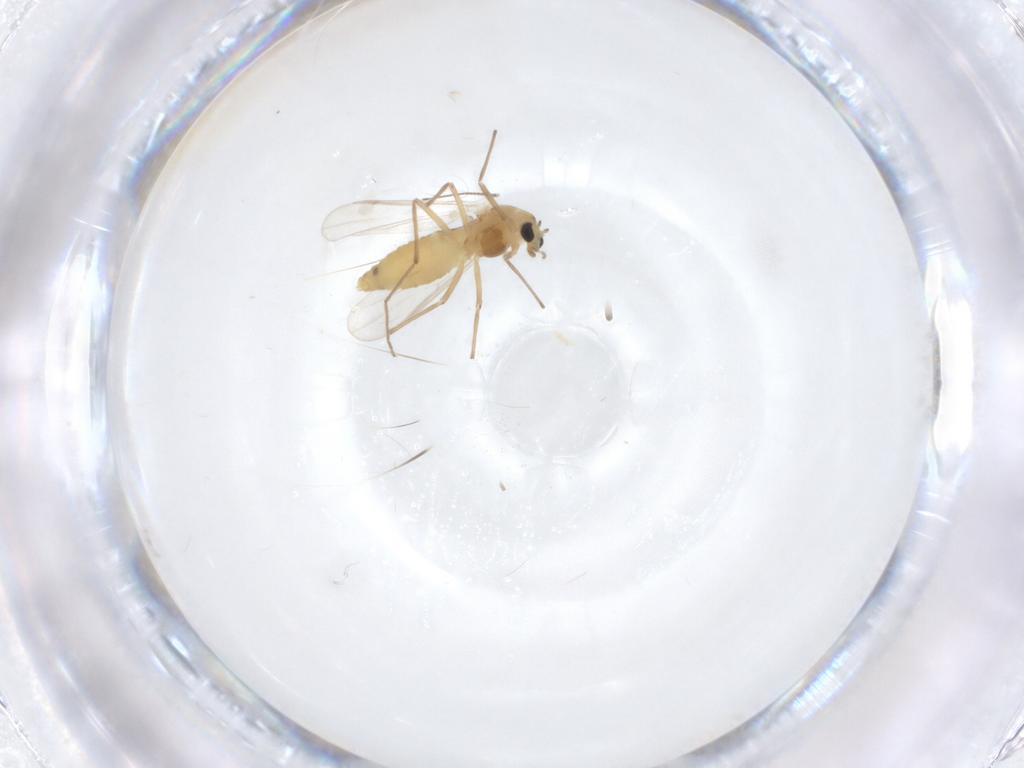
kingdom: Animalia
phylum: Arthropoda
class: Insecta
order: Diptera
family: Chironomidae
